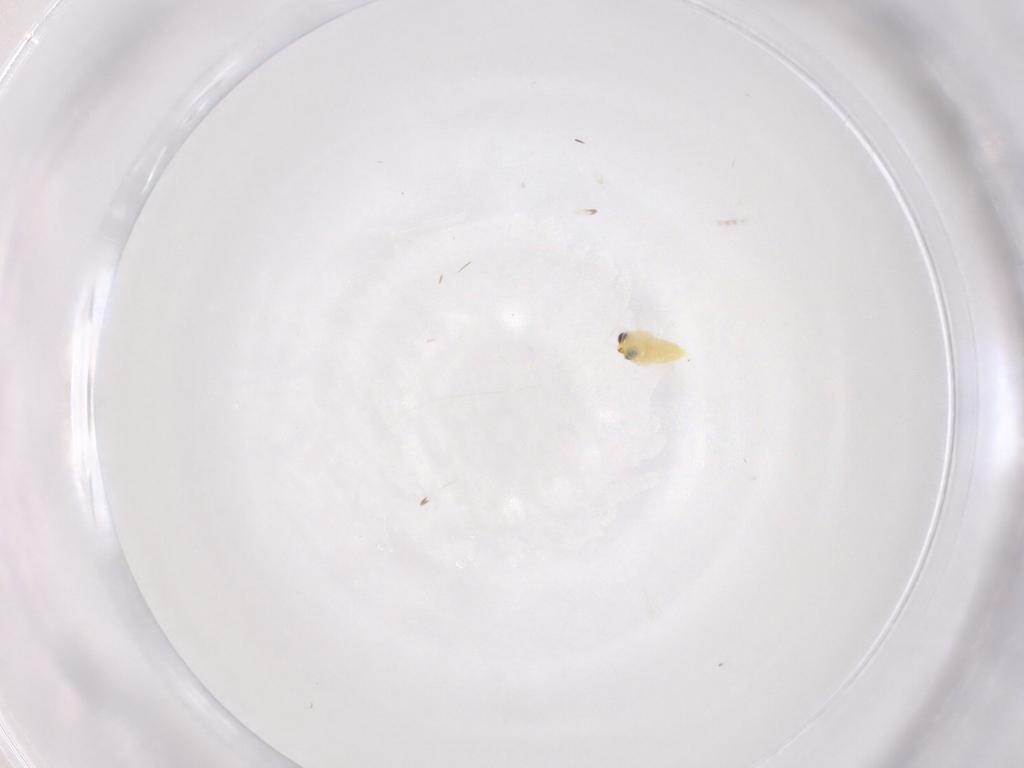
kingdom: Animalia
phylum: Arthropoda
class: Insecta
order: Hymenoptera
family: Aphelinidae
